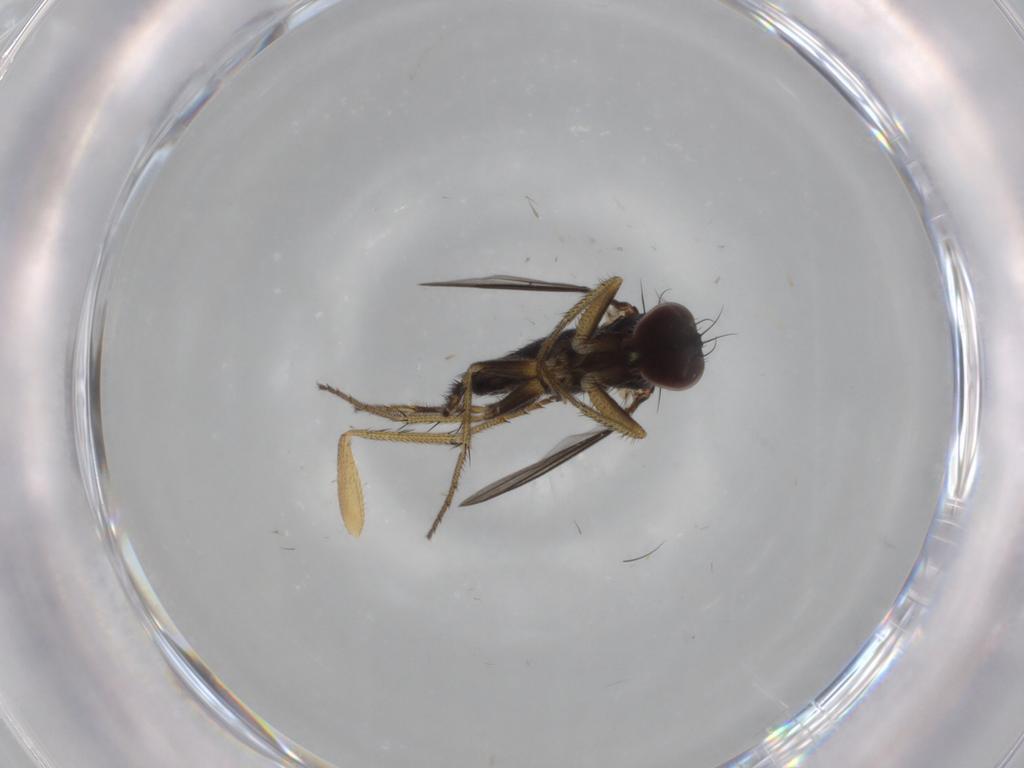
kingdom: Animalia
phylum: Arthropoda
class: Insecta
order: Diptera
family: Dolichopodidae
